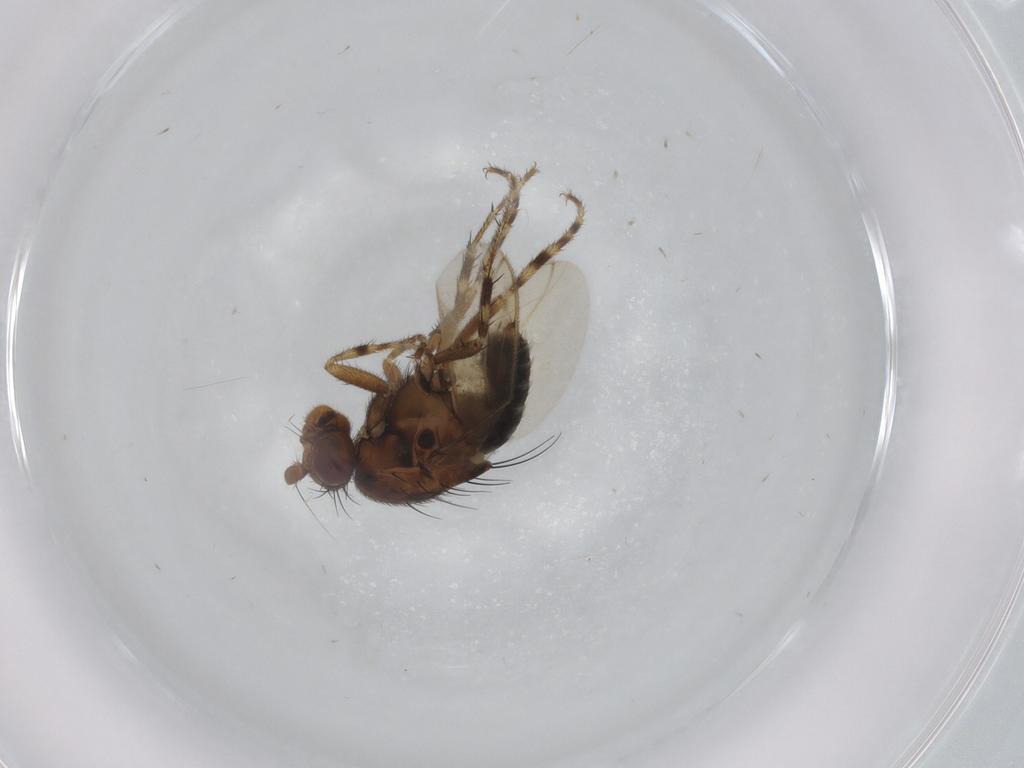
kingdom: Animalia
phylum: Arthropoda
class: Insecta
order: Diptera
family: Sphaeroceridae
